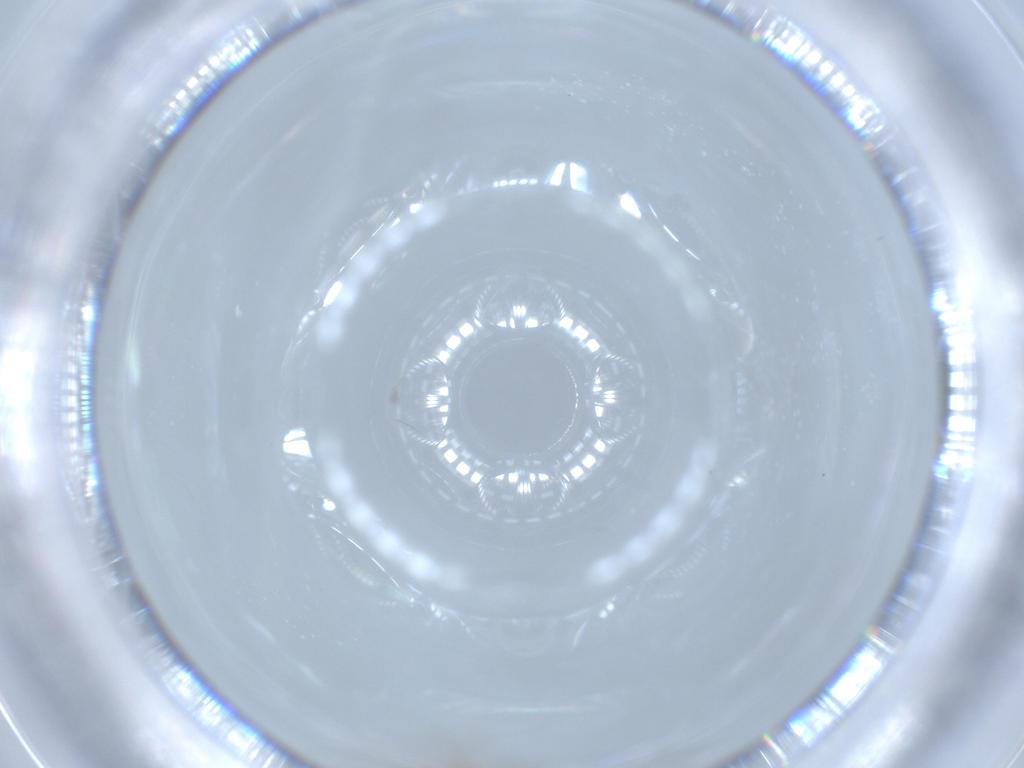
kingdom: Animalia
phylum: Arthropoda
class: Insecta
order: Hymenoptera
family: Diapriidae
